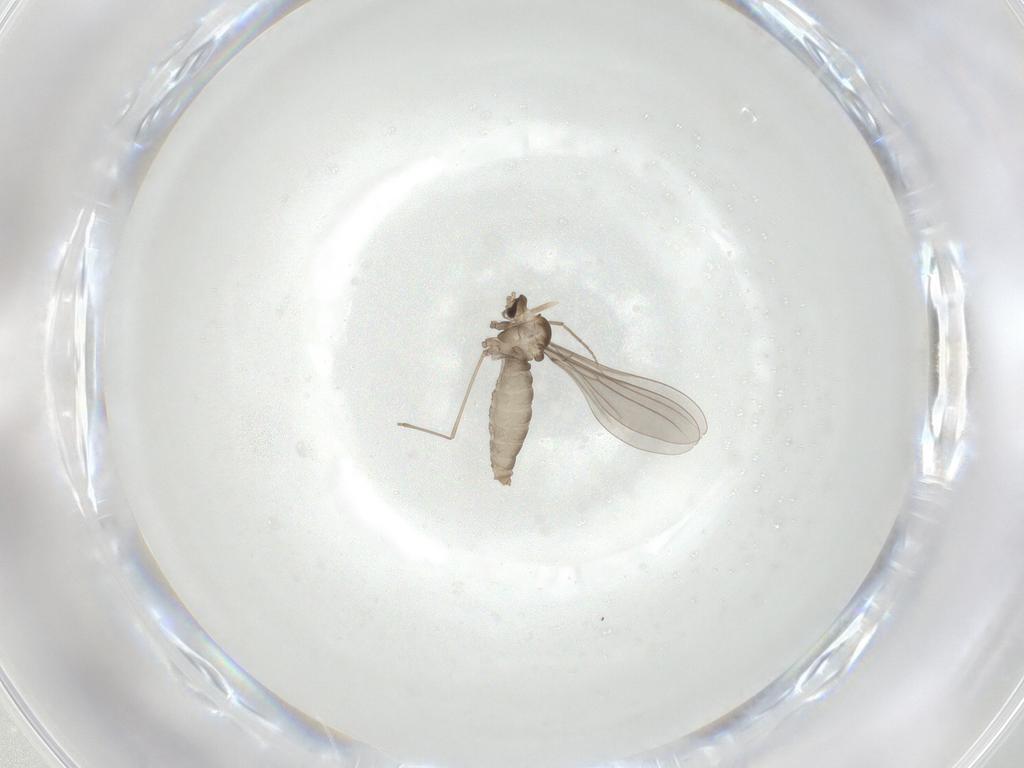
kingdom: Animalia
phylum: Arthropoda
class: Insecta
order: Diptera
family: Cecidomyiidae
